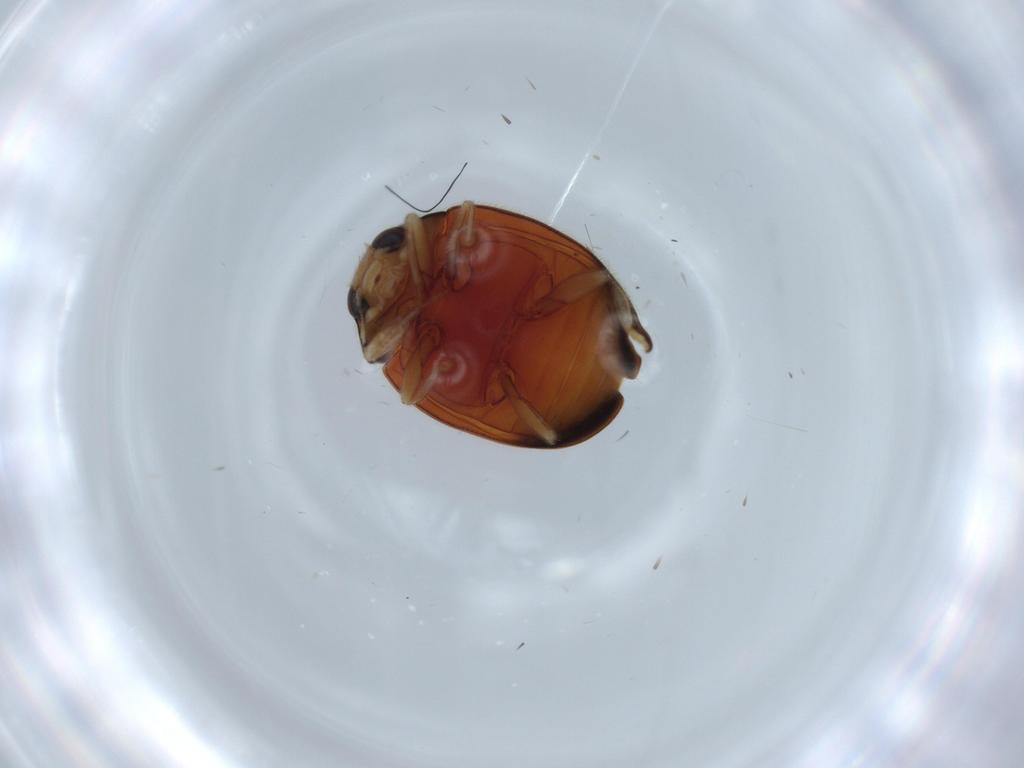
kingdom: Animalia
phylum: Arthropoda
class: Insecta
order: Coleoptera
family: Coccinellidae
